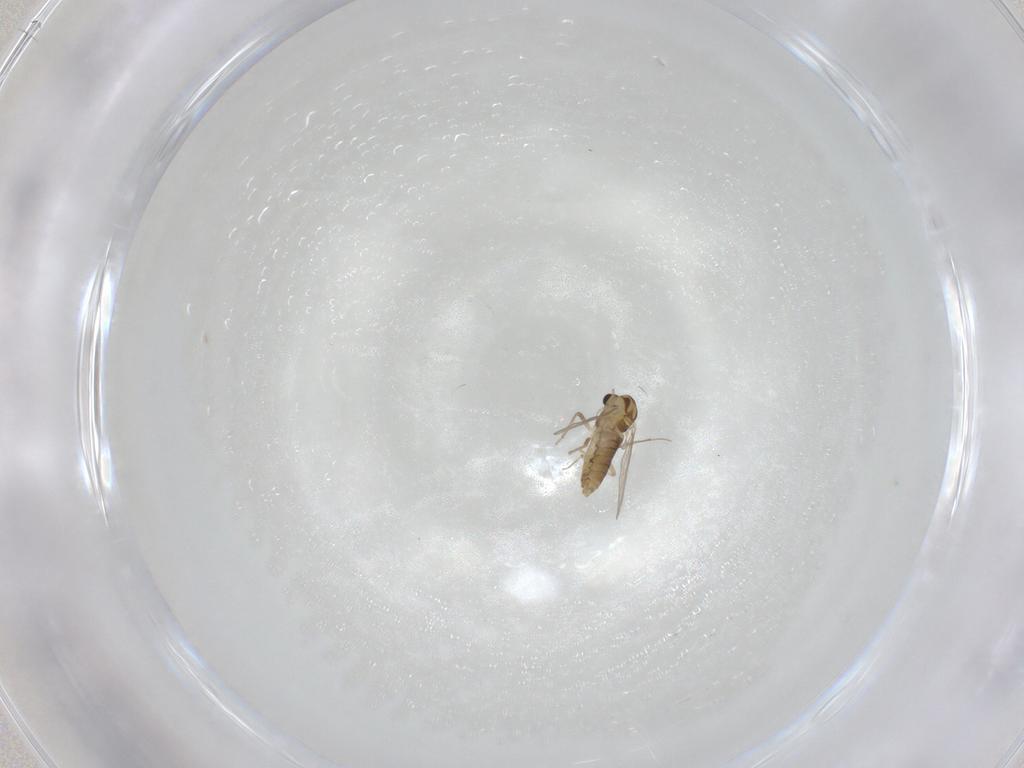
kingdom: Animalia
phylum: Arthropoda
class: Insecta
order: Diptera
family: Chironomidae
